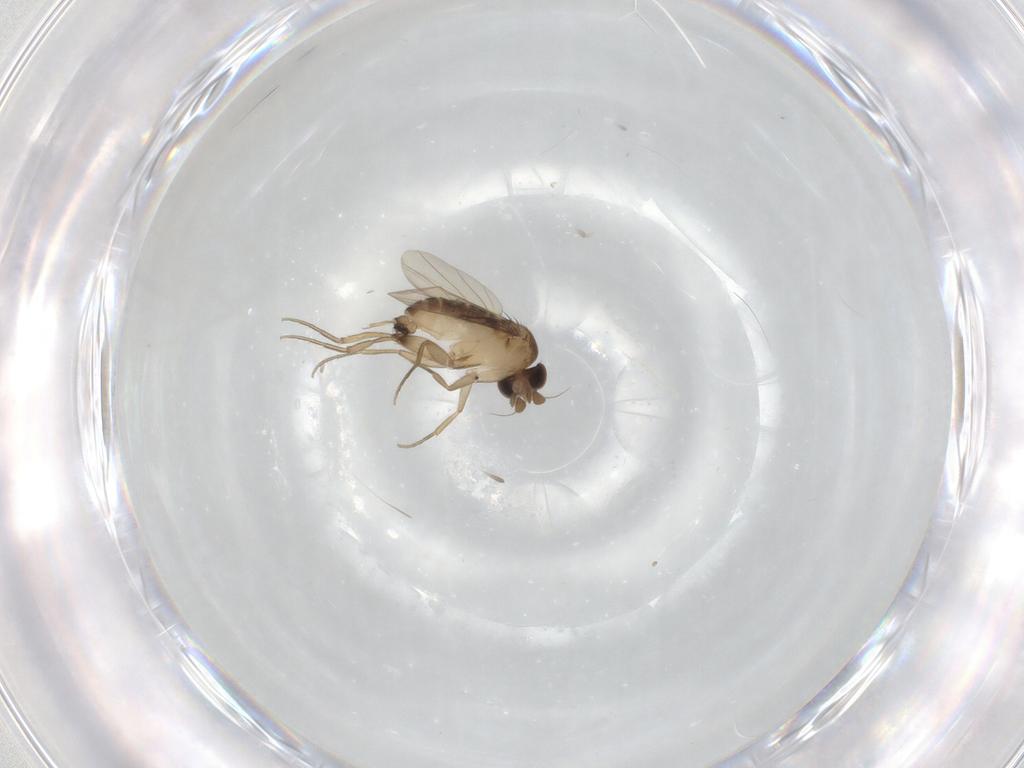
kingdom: Animalia
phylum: Arthropoda
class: Insecta
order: Diptera
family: Phoridae
